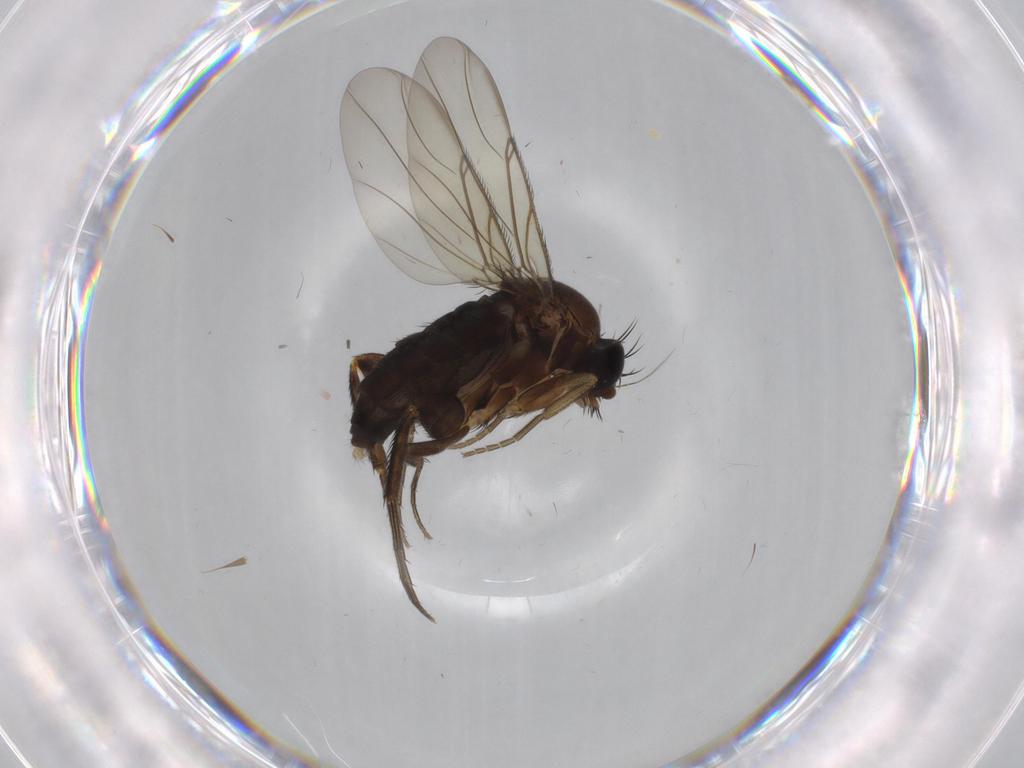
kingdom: Animalia
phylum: Arthropoda
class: Insecta
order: Diptera
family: Phoridae
